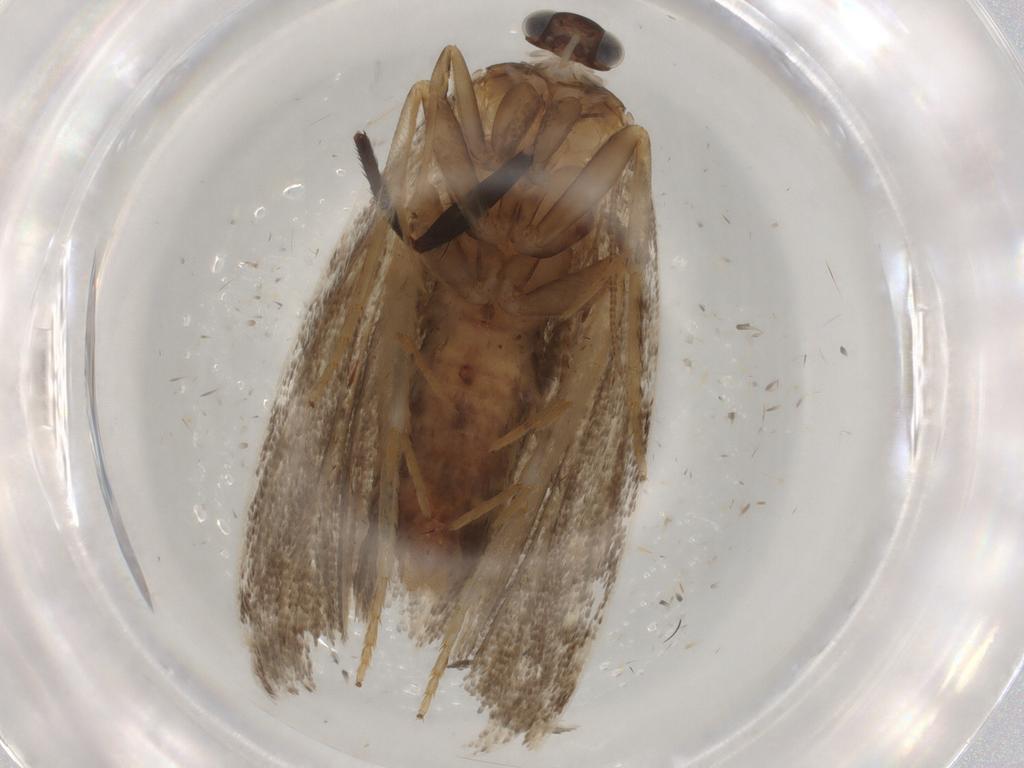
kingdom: Animalia
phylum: Arthropoda
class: Insecta
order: Lepidoptera
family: Tortricidae
